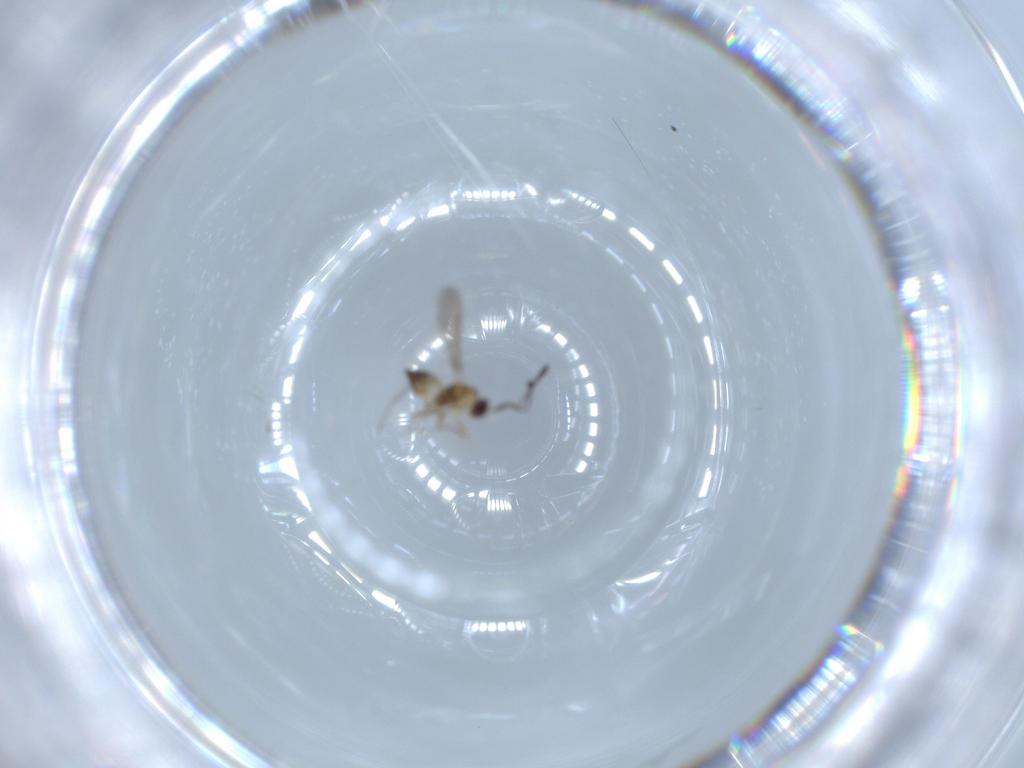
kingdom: Animalia
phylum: Arthropoda
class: Insecta
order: Hymenoptera
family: Mymaridae
